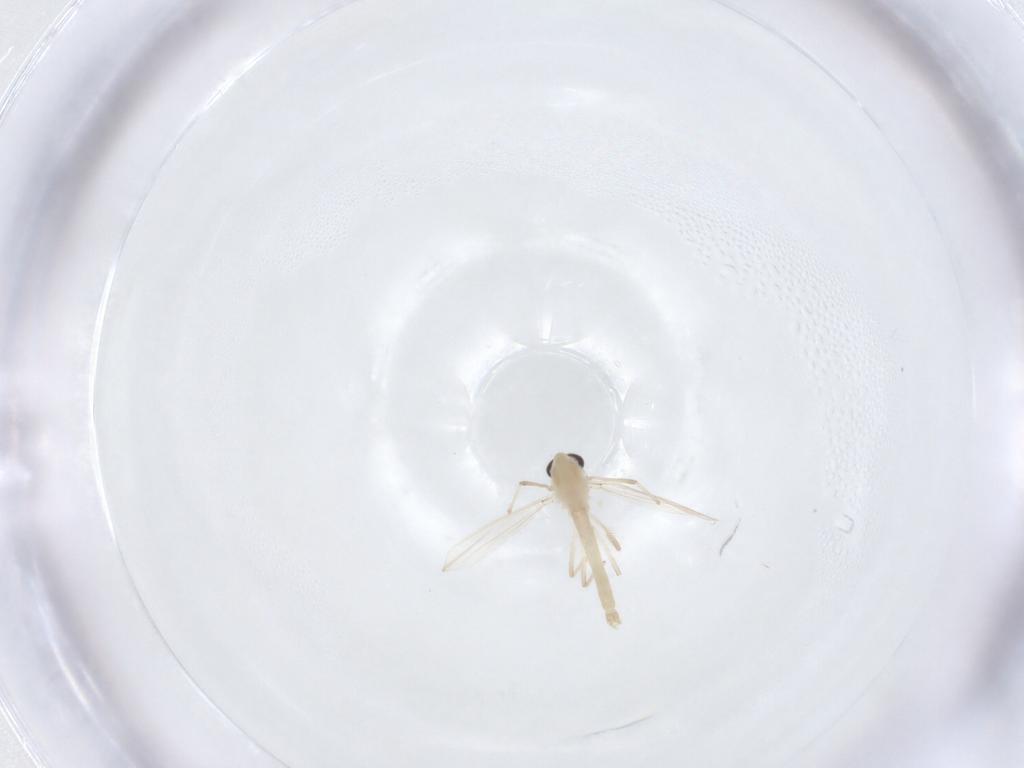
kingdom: Animalia
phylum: Arthropoda
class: Insecta
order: Diptera
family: Chironomidae
